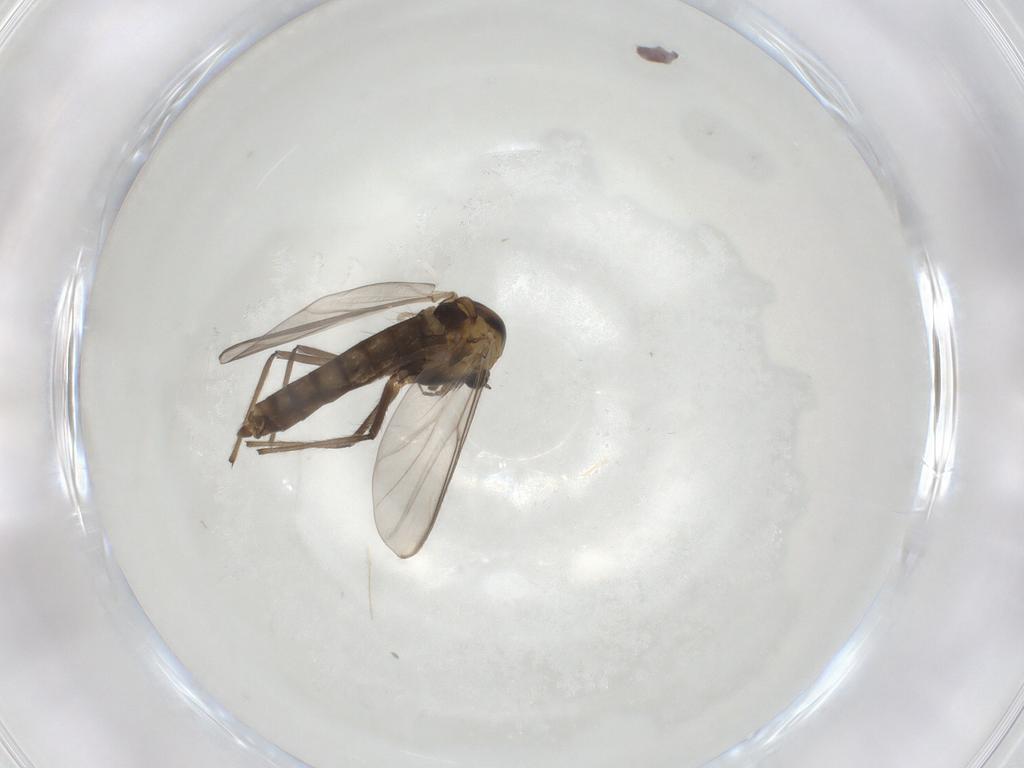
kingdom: Animalia
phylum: Arthropoda
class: Insecta
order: Diptera
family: Chironomidae
